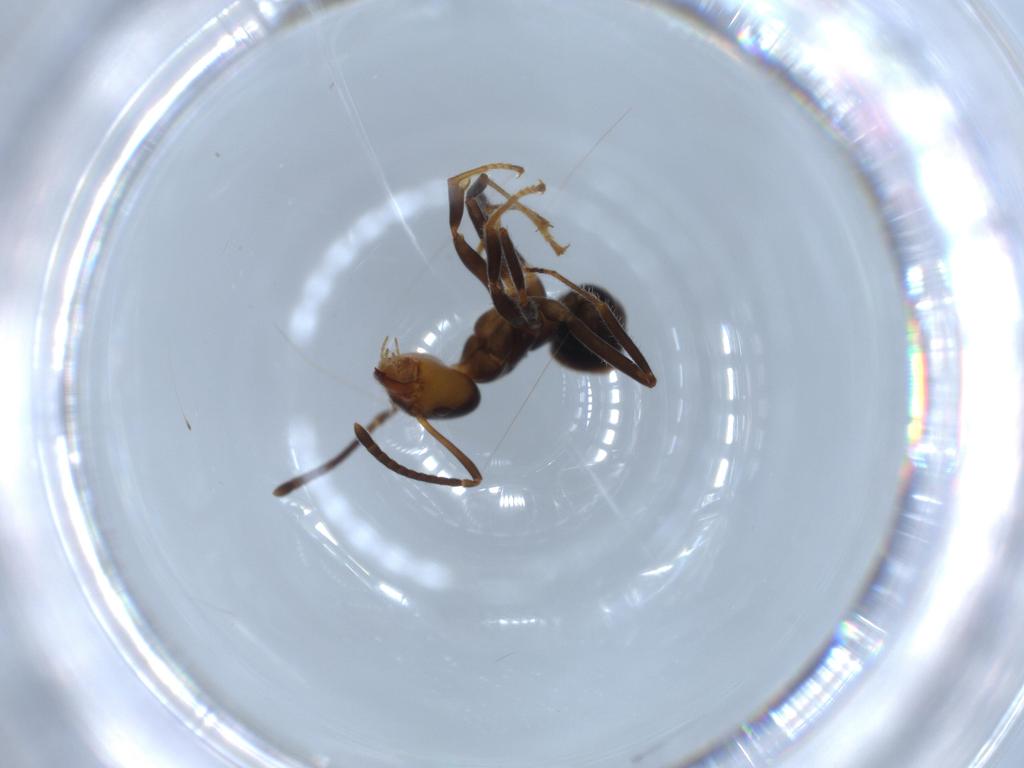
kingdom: Animalia
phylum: Arthropoda
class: Insecta
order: Hymenoptera
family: Formicidae
